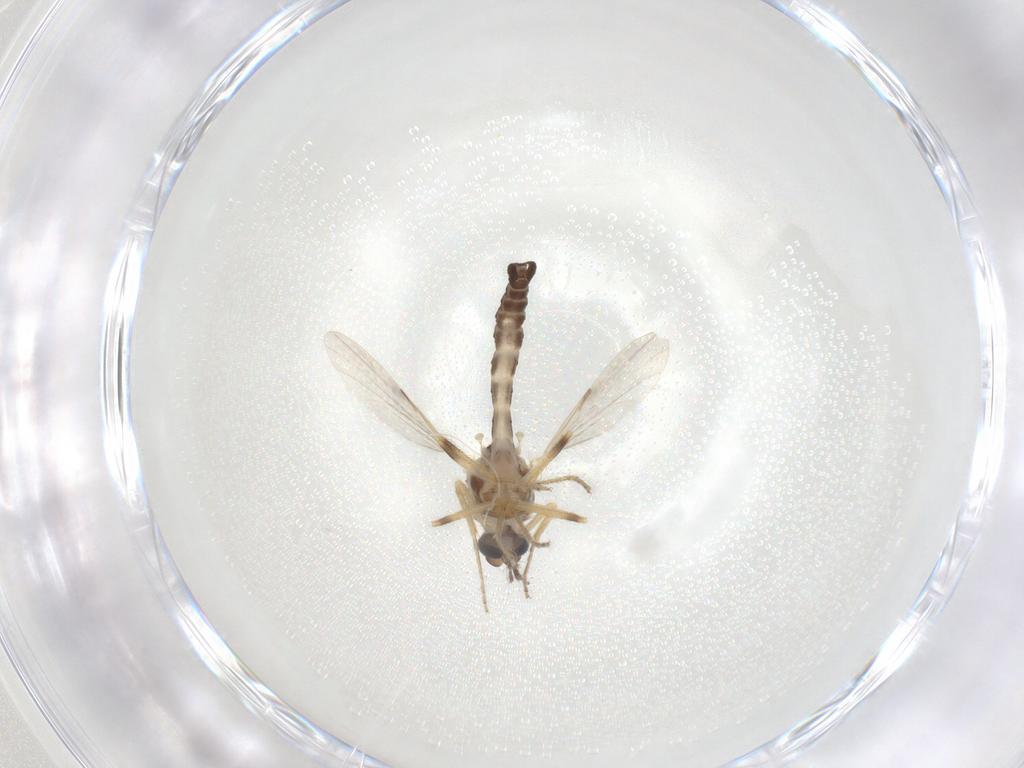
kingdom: Animalia
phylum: Arthropoda
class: Insecta
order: Diptera
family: Ceratopogonidae
